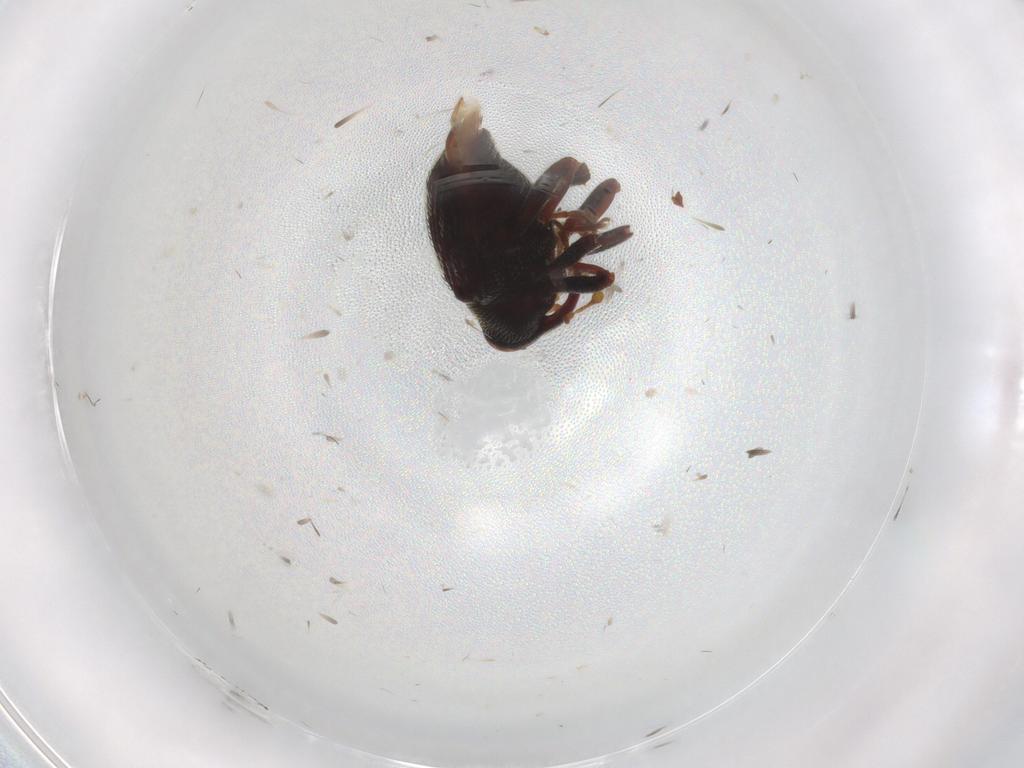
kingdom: Animalia
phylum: Arthropoda
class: Insecta
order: Coleoptera
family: Curculionidae
